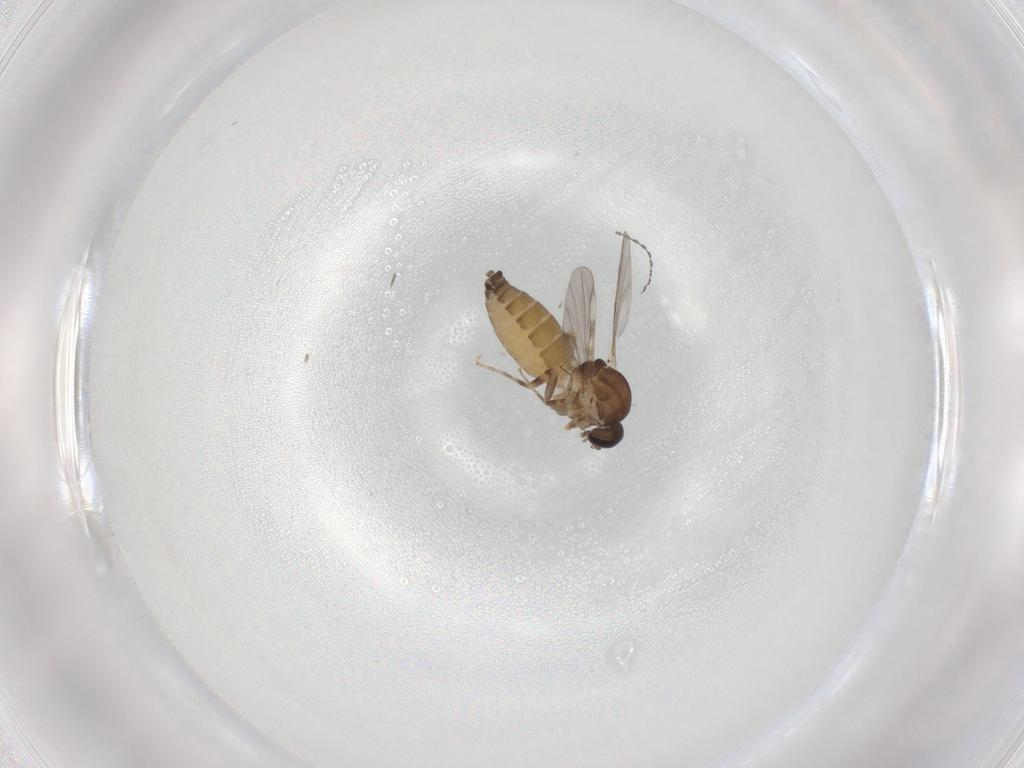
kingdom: Animalia
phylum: Arthropoda
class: Insecta
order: Diptera
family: Ceratopogonidae
